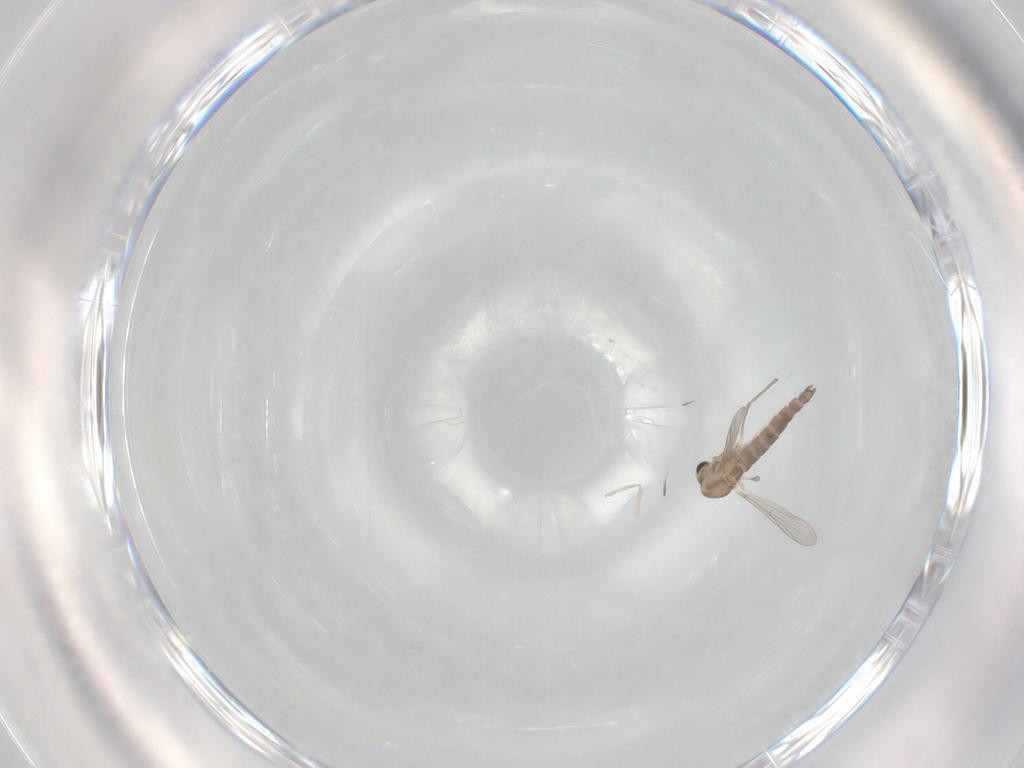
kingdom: Animalia
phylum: Arthropoda
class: Insecta
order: Diptera
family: Chironomidae
